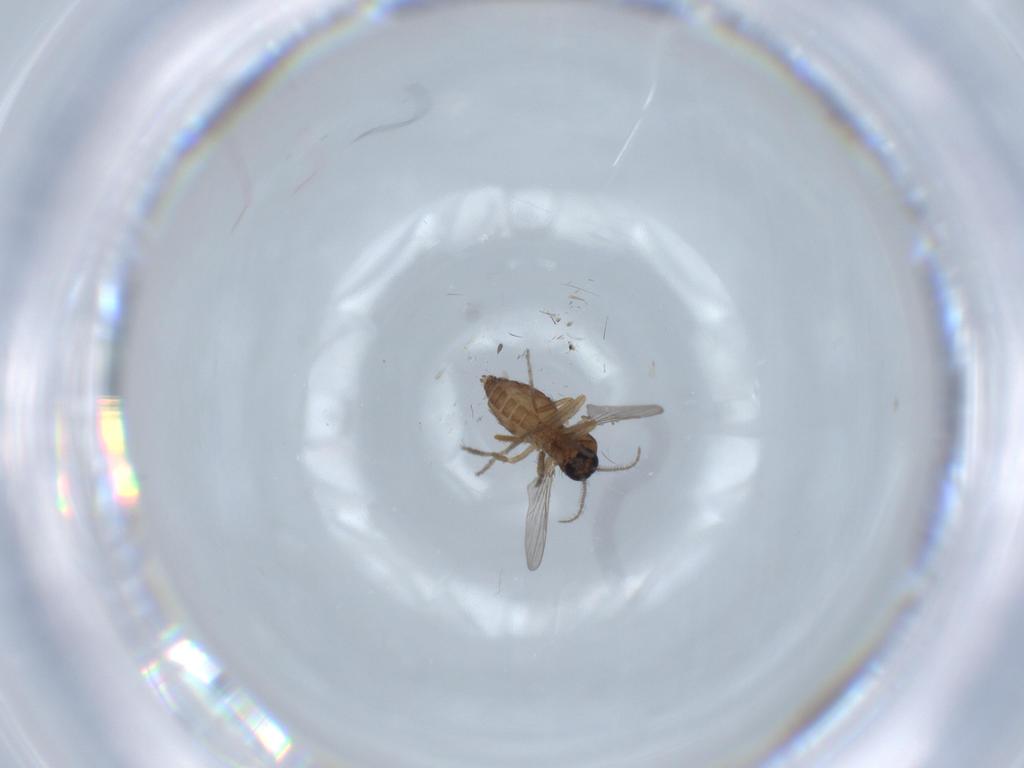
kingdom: Animalia
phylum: Arthropoda
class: Insecta
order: Diptera
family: Ceratopogonidae
